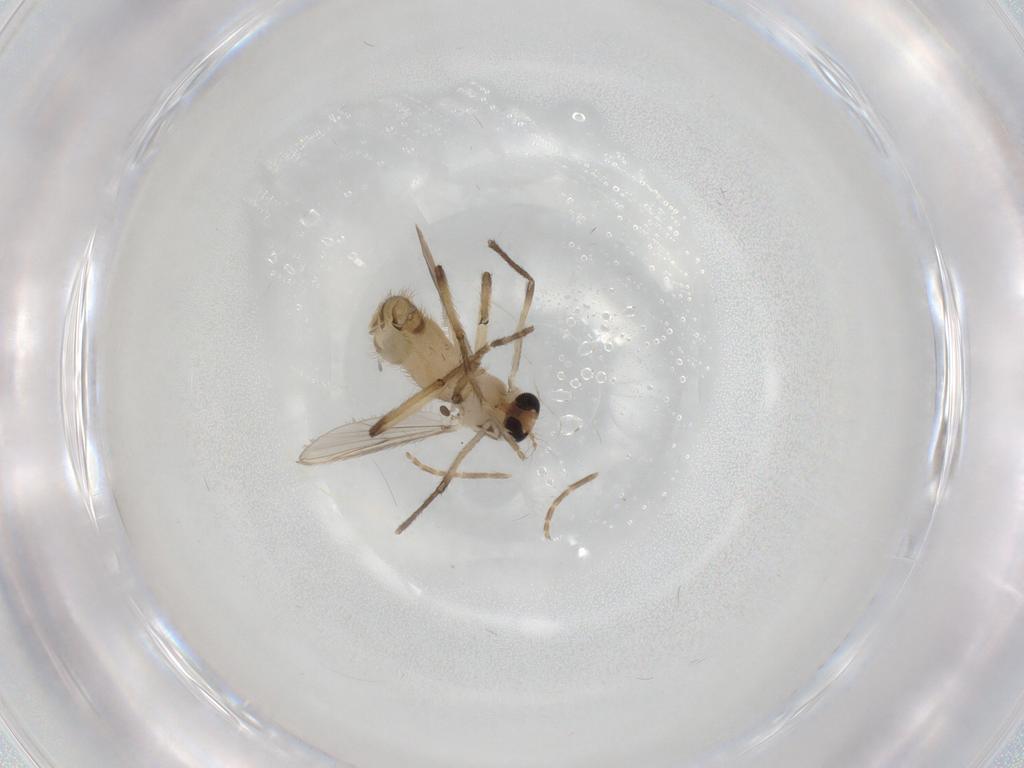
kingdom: Animalia
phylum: Arthropoda
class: Insecta
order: Diptera
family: Chironomidae
